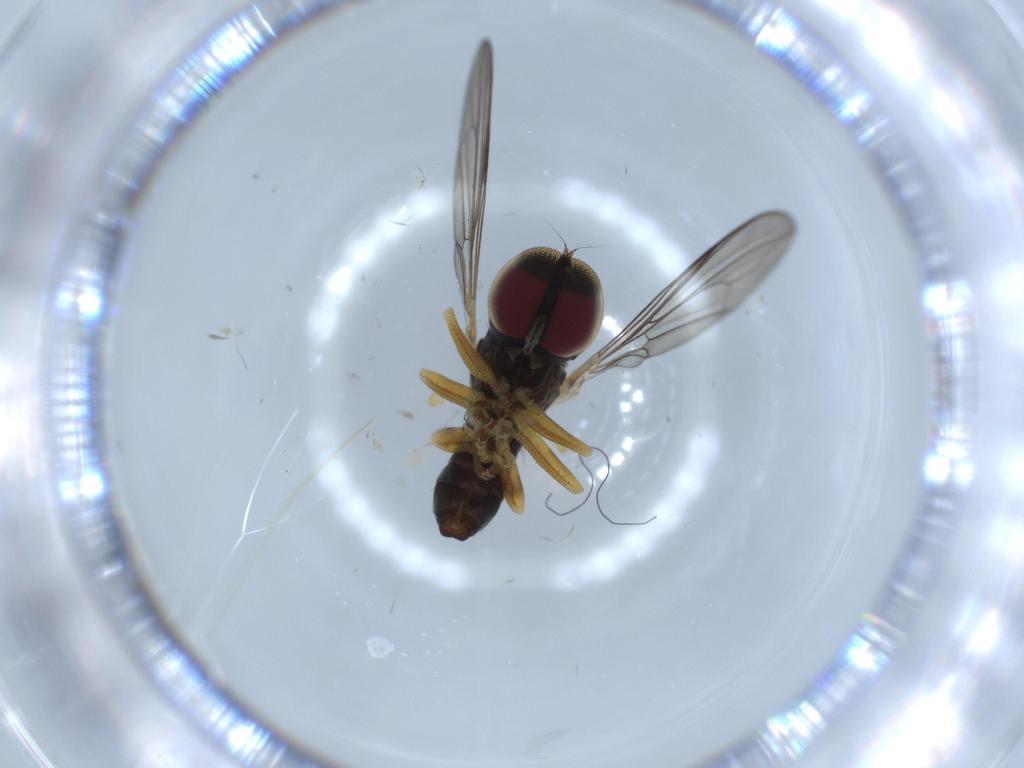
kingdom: Animalia
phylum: Arthropoda
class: Insecta
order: Diptera
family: Pipunculidae
